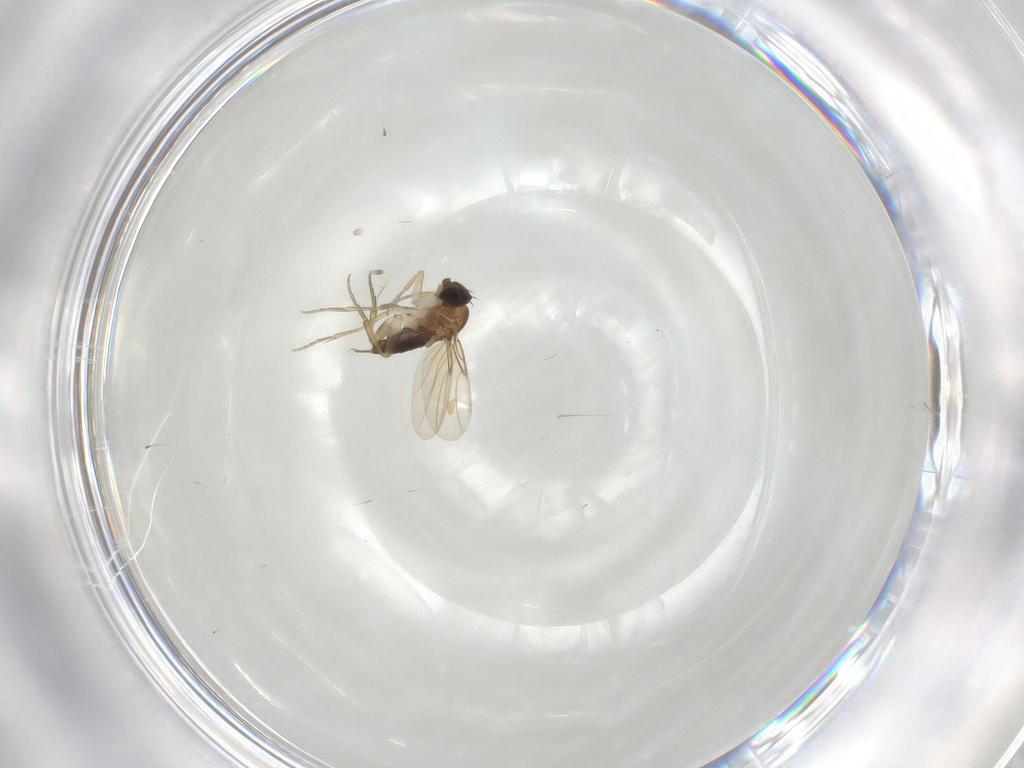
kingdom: Animalia
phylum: Arthropoda
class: Insecta
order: Diptera
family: Phoridae
